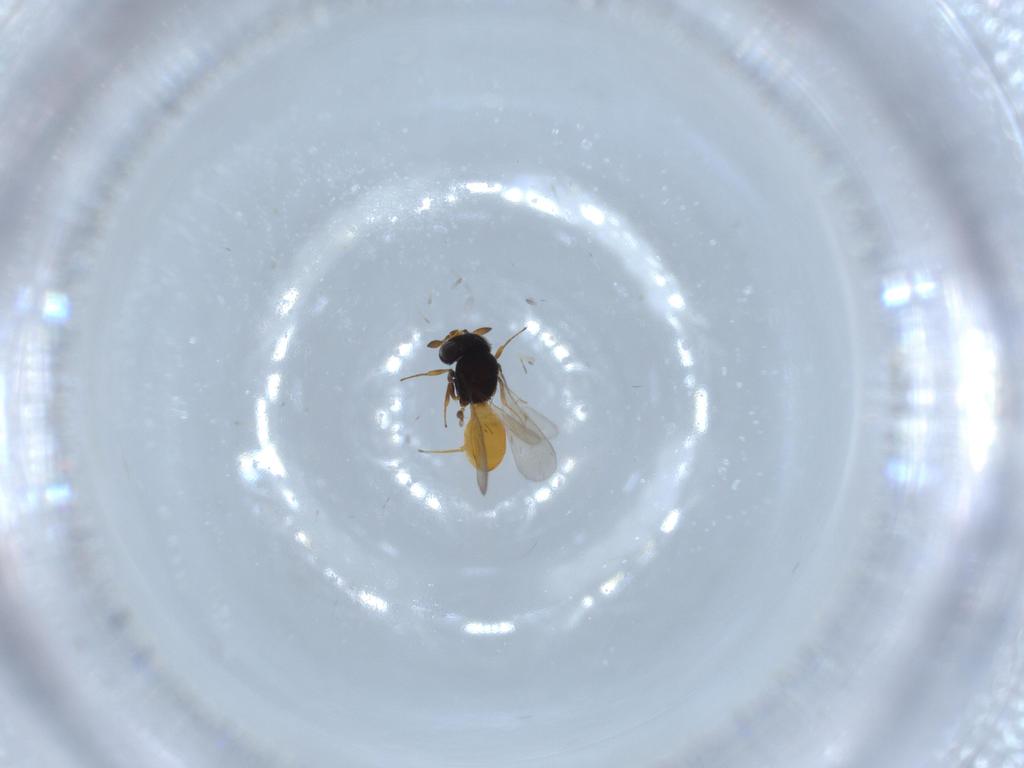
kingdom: Animalia
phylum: Arthropoda
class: Insecta
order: Hymenoptera
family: Scelionidae
